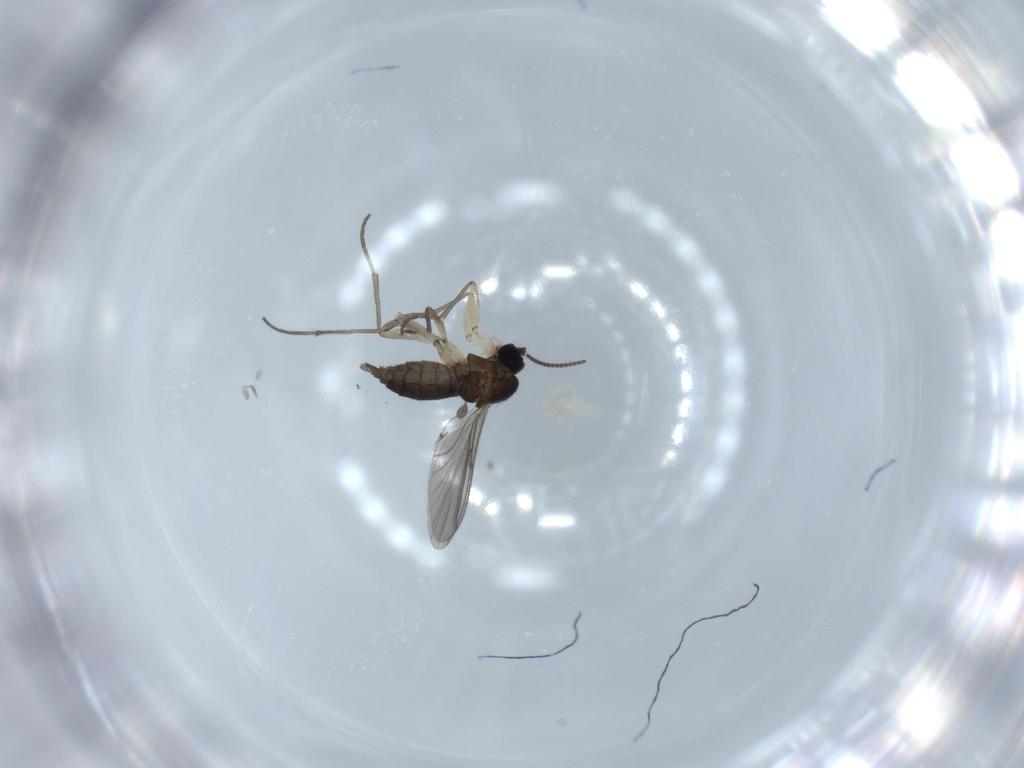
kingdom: Animalia
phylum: Arthropoda
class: Insecta
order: Diptera
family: Sciaridae
